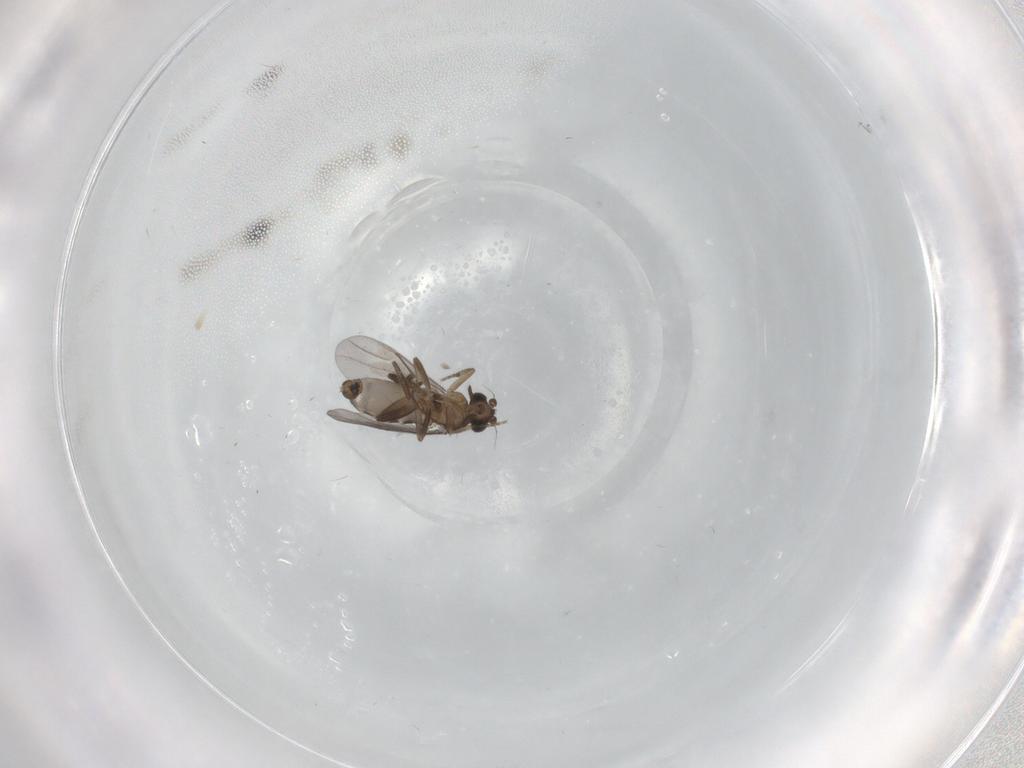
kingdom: Animalia
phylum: Arthropoda
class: Insecta
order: Diptera
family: Cecidomyiidae
